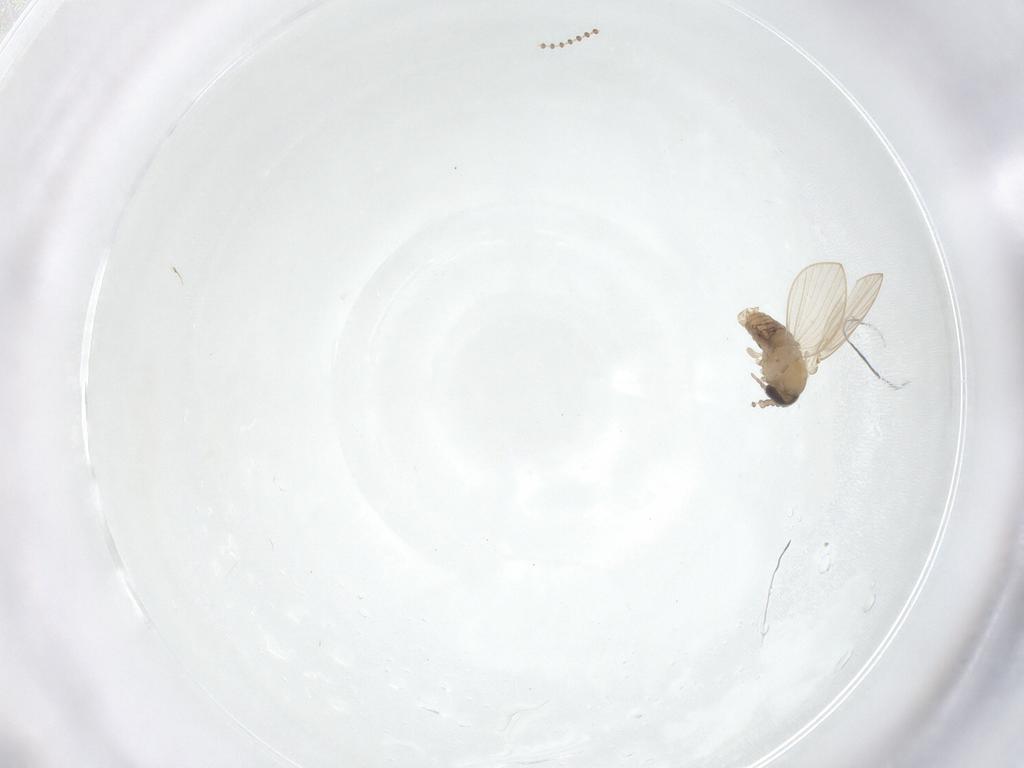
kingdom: Animalia
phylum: Arthropoda
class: Insecta
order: Diptera
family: Psychodidae
